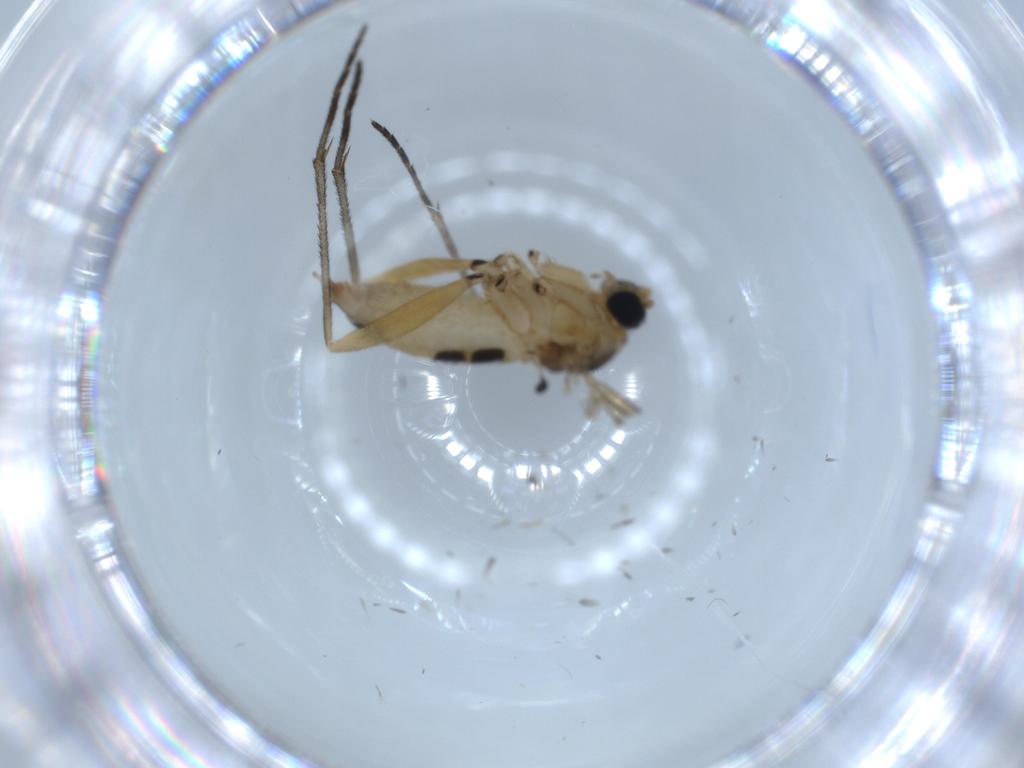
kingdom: Animalia
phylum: Arthropoda
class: Insecta
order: Diptera
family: Sciaridae
